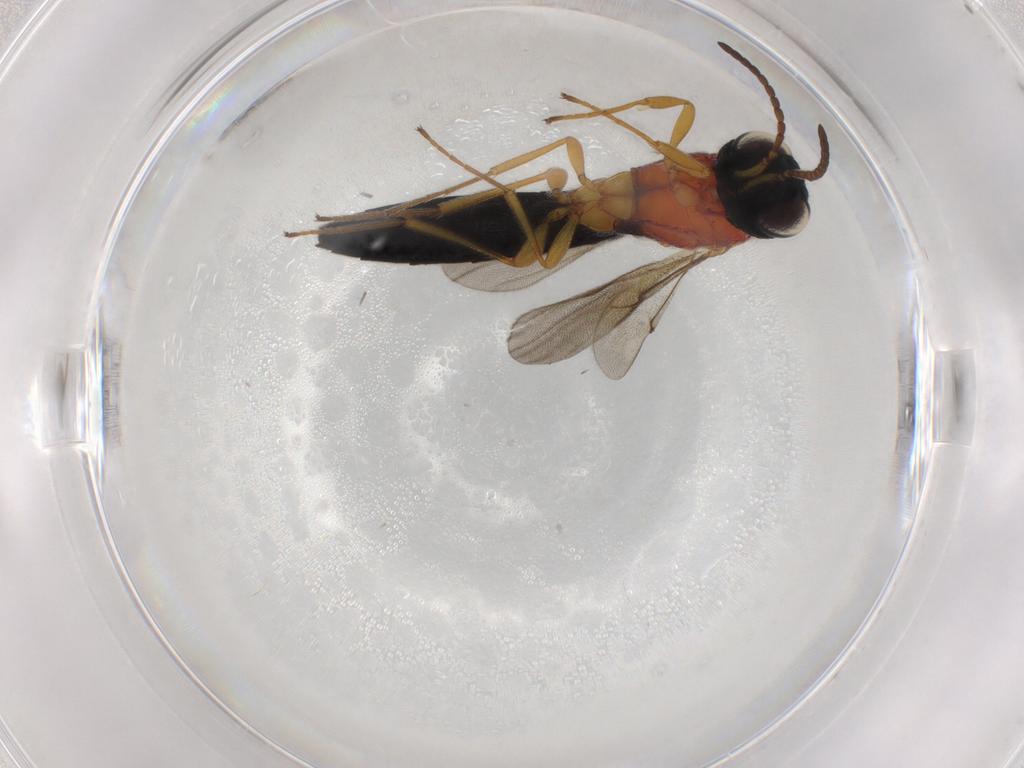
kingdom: Animalia
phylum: Arthropoda
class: Insecta
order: Hymenoptera
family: Scelionidae
